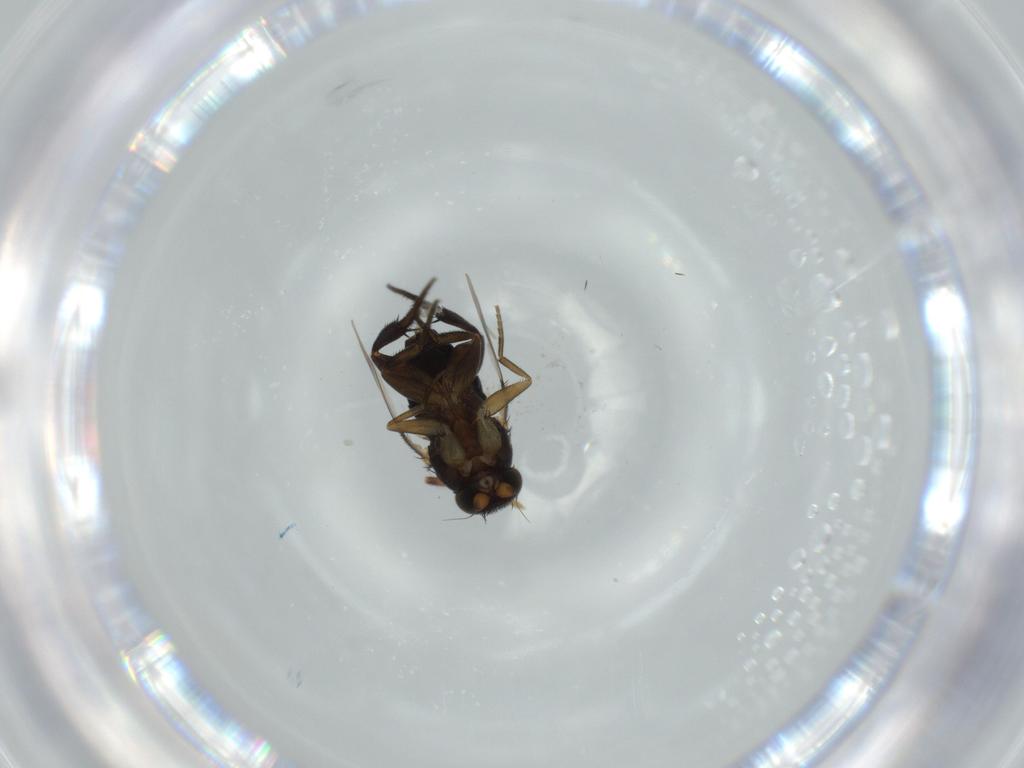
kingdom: Animalia
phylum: Arthropoda
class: Insecta
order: Diptera
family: Phoridae
